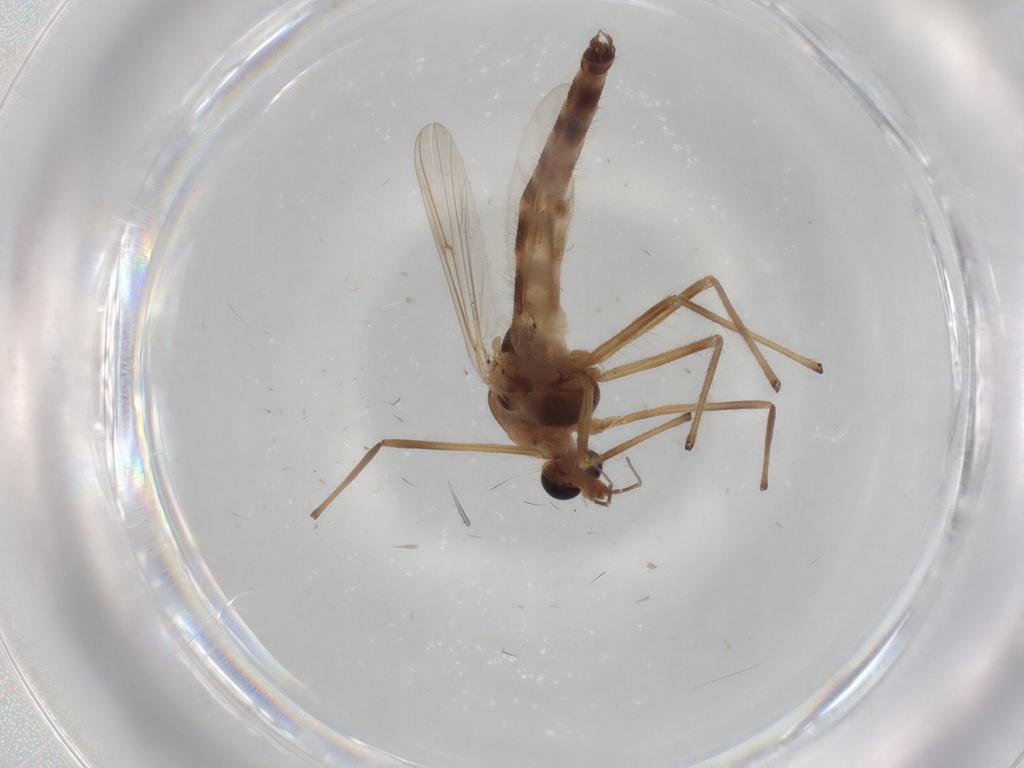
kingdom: Animalia
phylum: Arthropoda
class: Insecta
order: Diptera
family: Chironomidae
